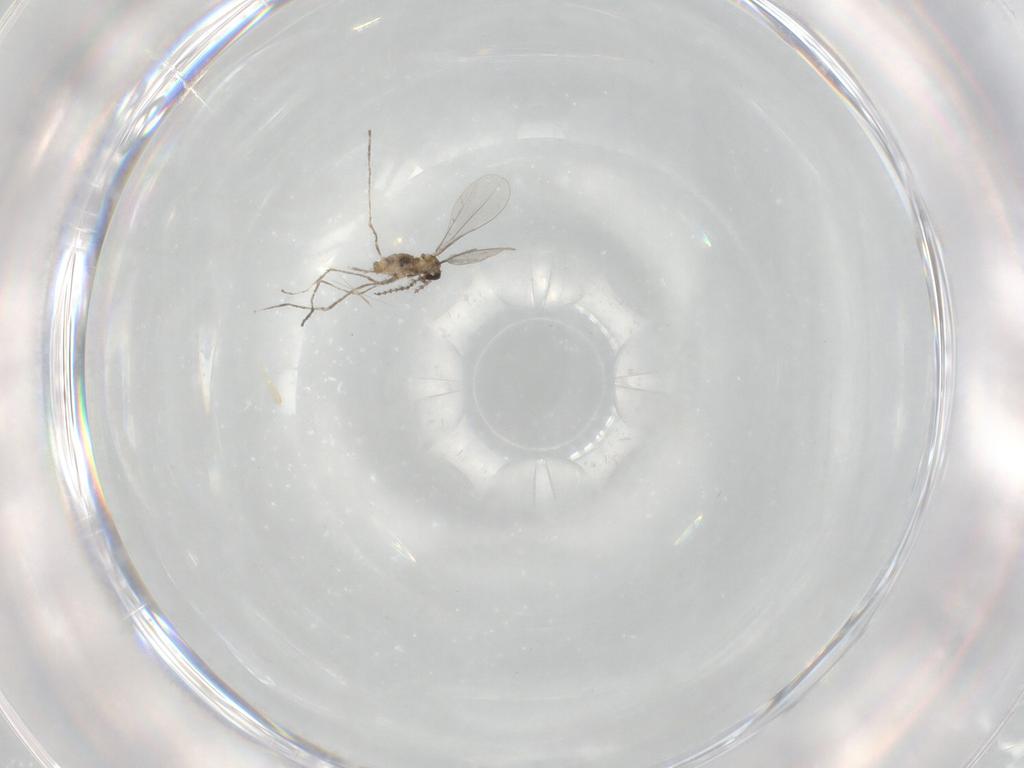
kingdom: Animalia
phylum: Arthropoda
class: Insecta
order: Diptera
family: Cecidomyiidae
